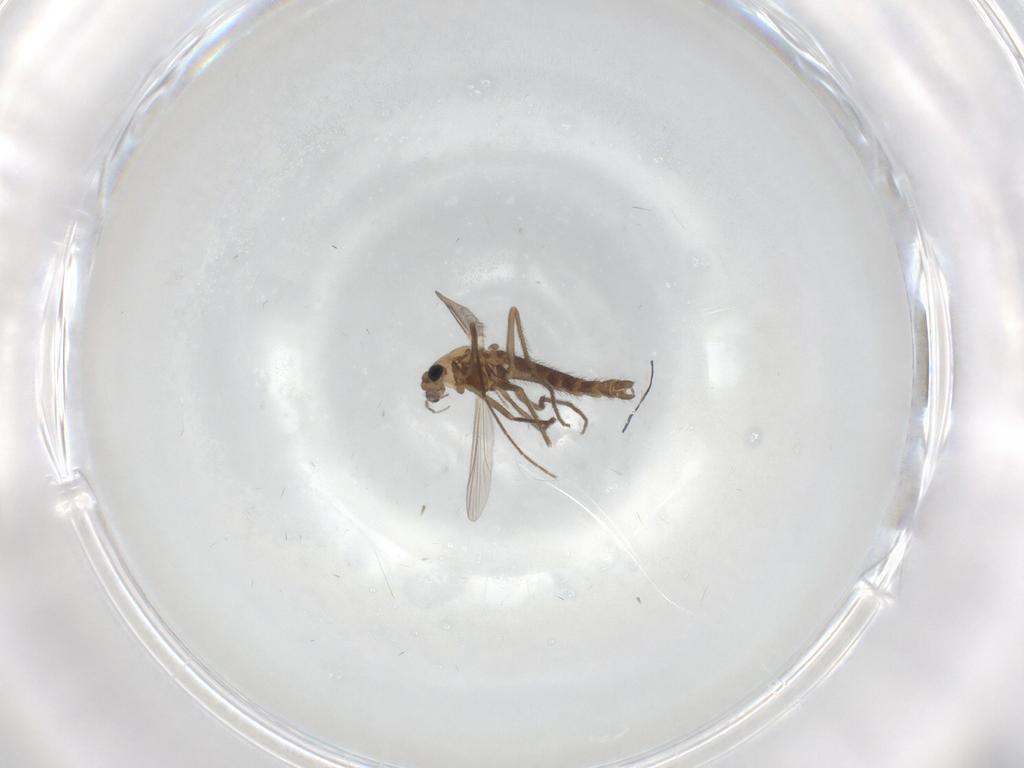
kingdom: Animalia
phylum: Arthropoda
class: Insecta
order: Diptera
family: Chironomidae
